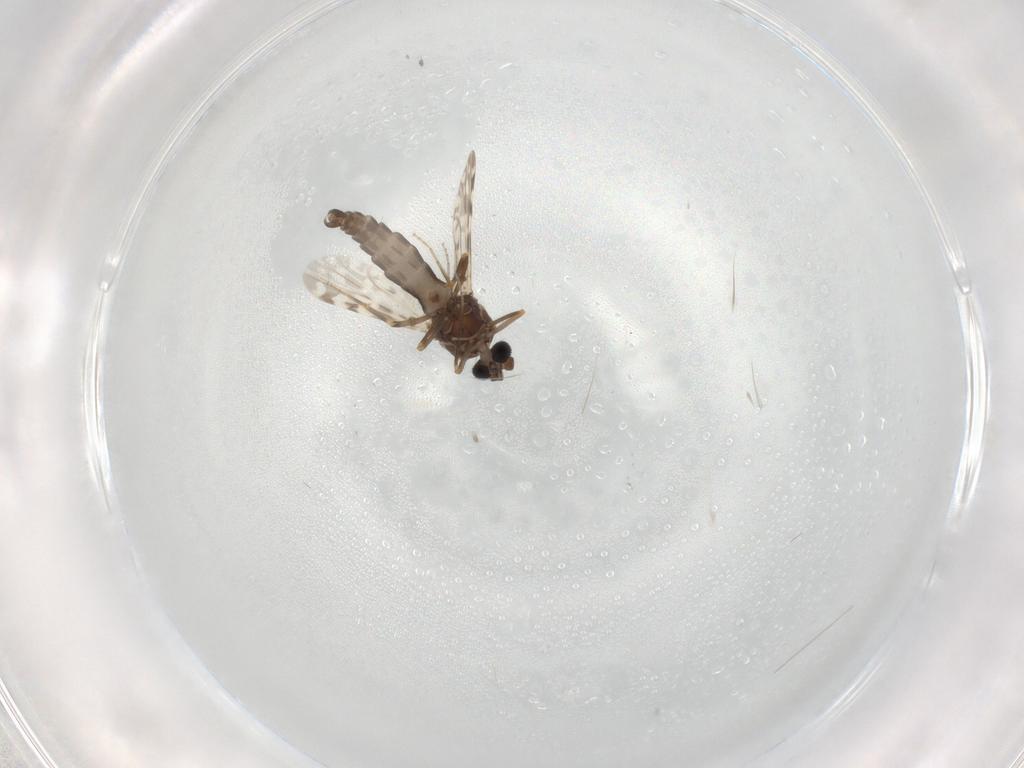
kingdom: Animalia
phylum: Arthropoda
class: Insecta
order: Diptera
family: Ceratopogonidae
